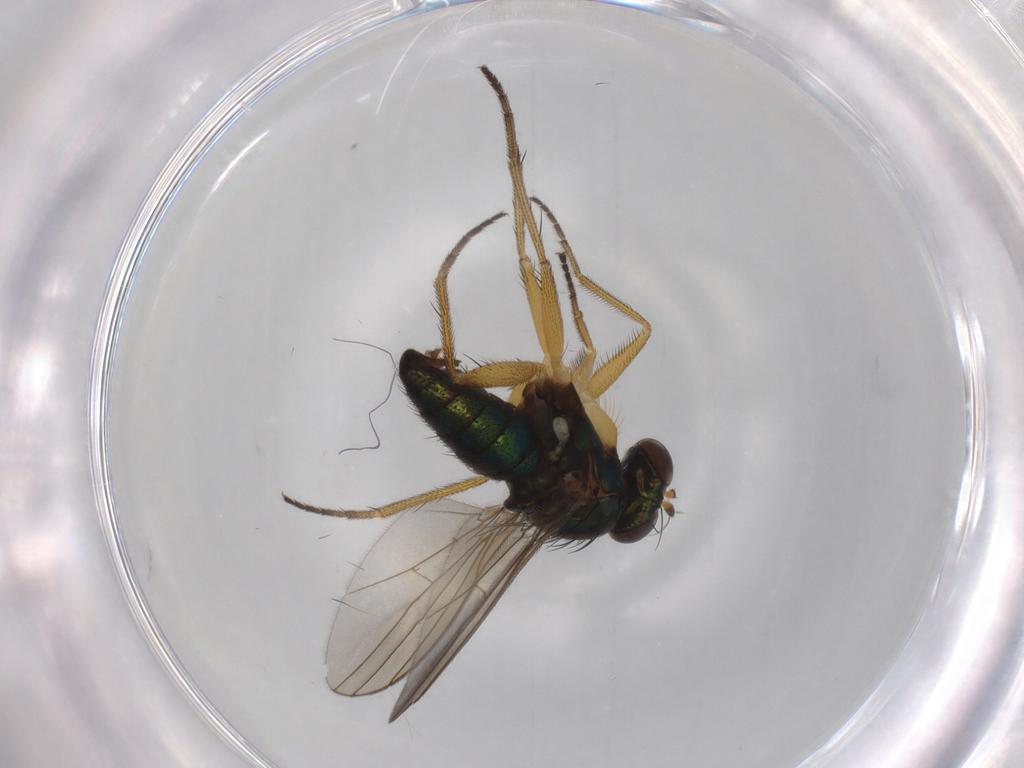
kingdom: Animalia
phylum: Arthropoda
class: Insecta
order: Diptera
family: Dolichopodidae
